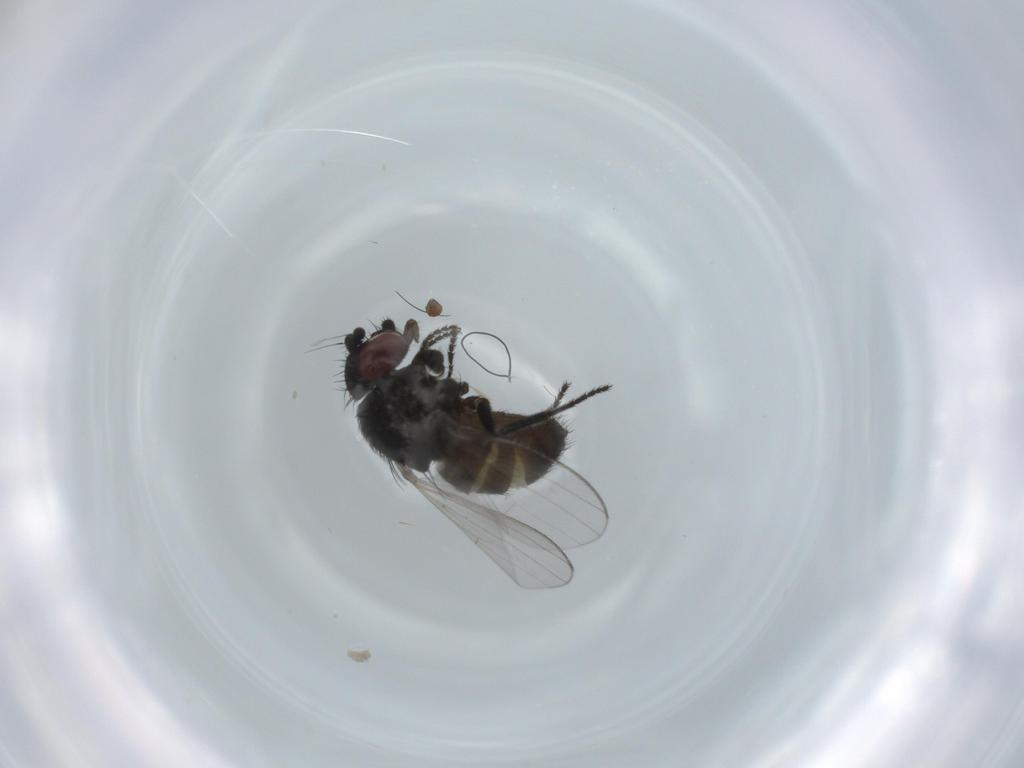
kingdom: Animalia
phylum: Arthropoda
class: Insecta
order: Diptera
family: Milichiidae
